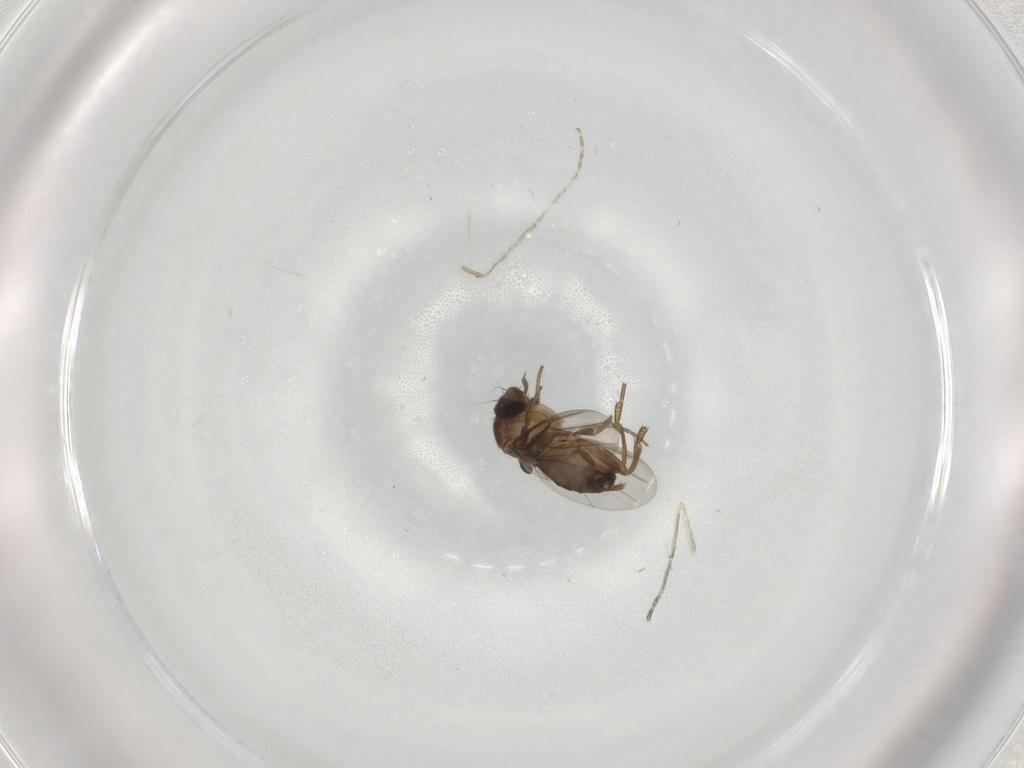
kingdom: Animalia
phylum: Arthropoda
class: Insecta
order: Diptera
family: Cecidomyiidae
